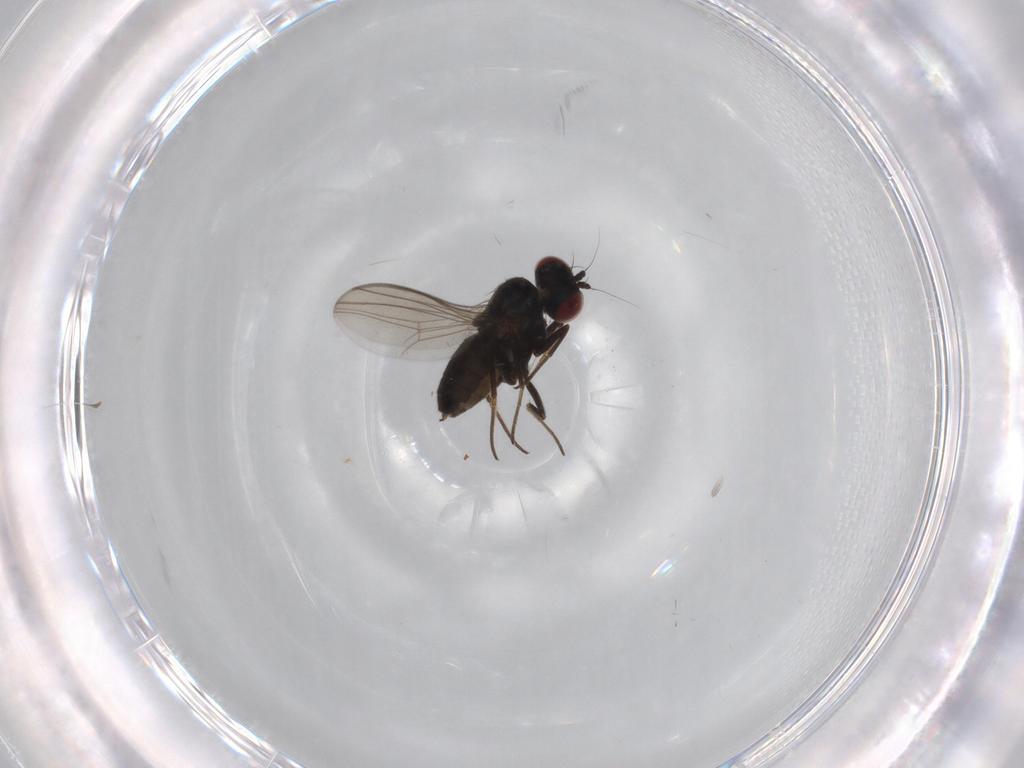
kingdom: Animalia
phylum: Arthropoda
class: Insecta
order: Diptera
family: Dolichopodidae
